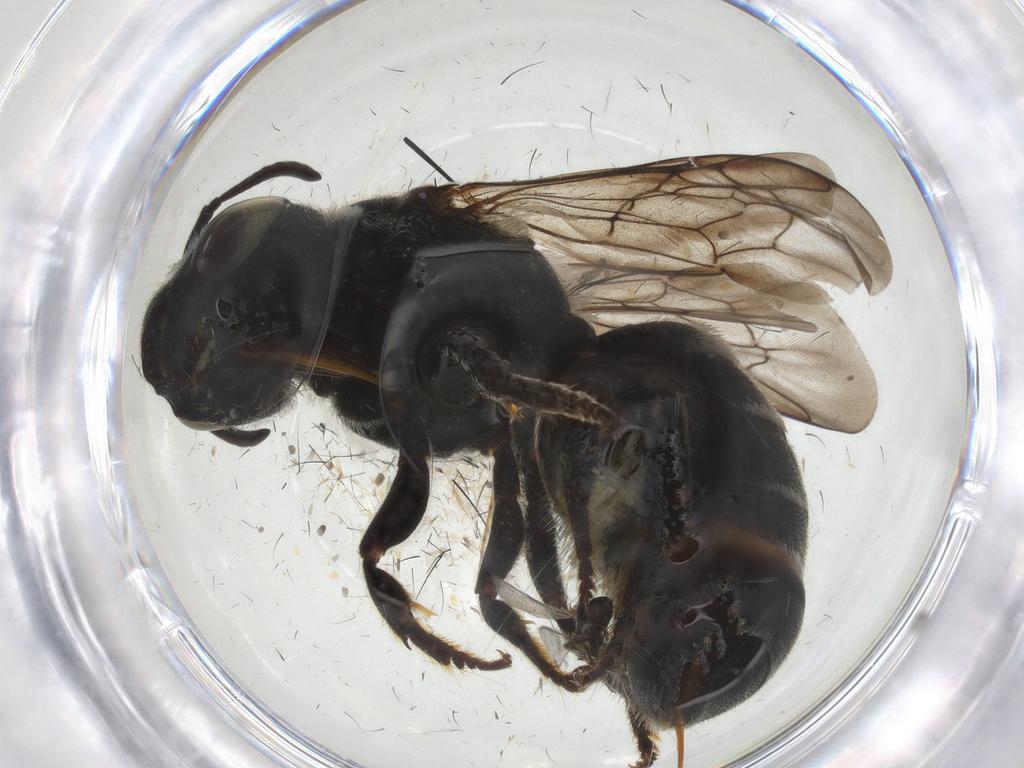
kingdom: Animalia
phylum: Arthropoda
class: Insecta
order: Hymenoptera
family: Megachilidae
